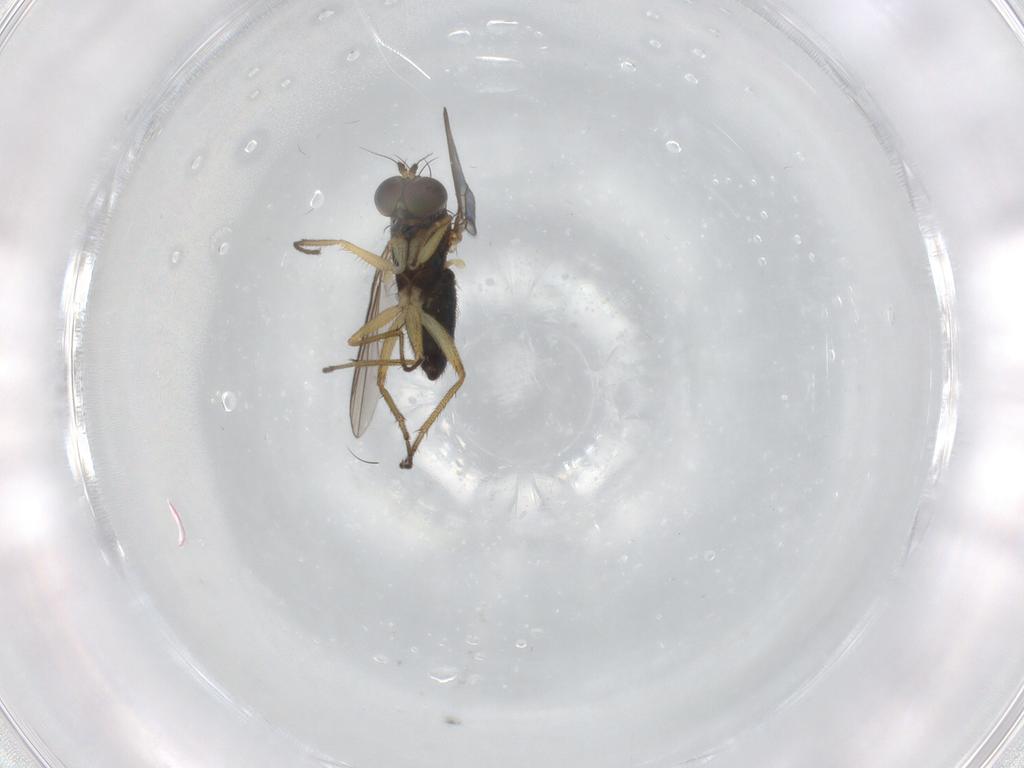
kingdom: Animalia
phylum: Arthropoda
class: Insecta
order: Diptera
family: Ceratopogonidae
